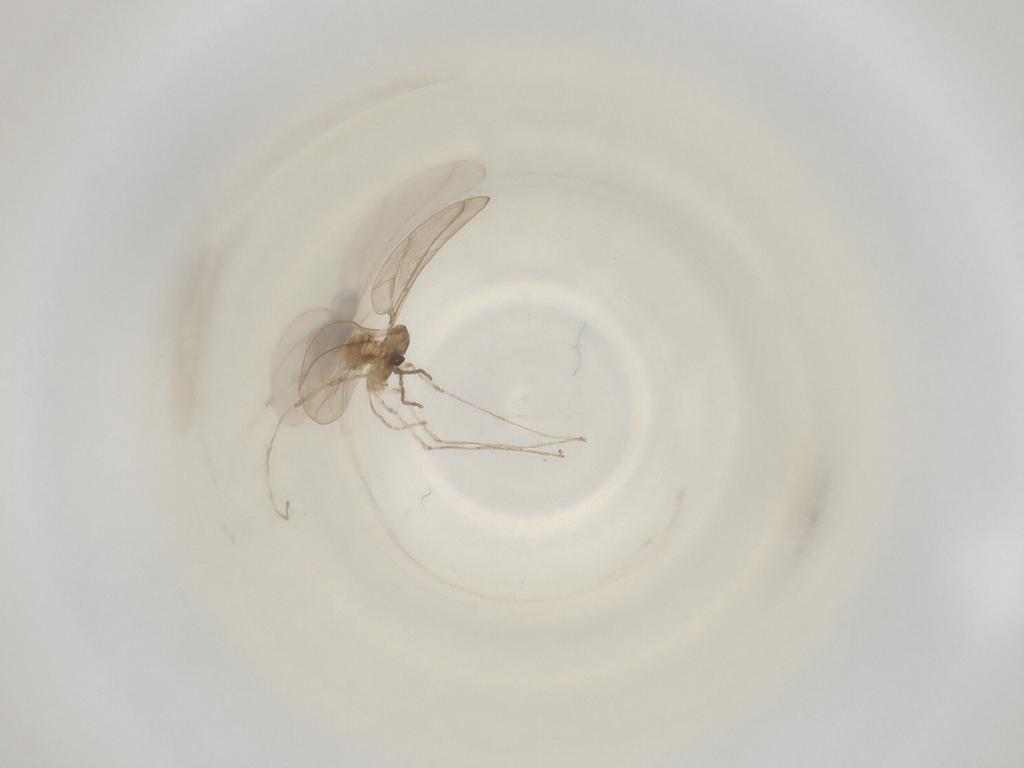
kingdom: Animalia
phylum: Arthropoda
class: Insecta
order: Diptera
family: Cecidomyiidae
